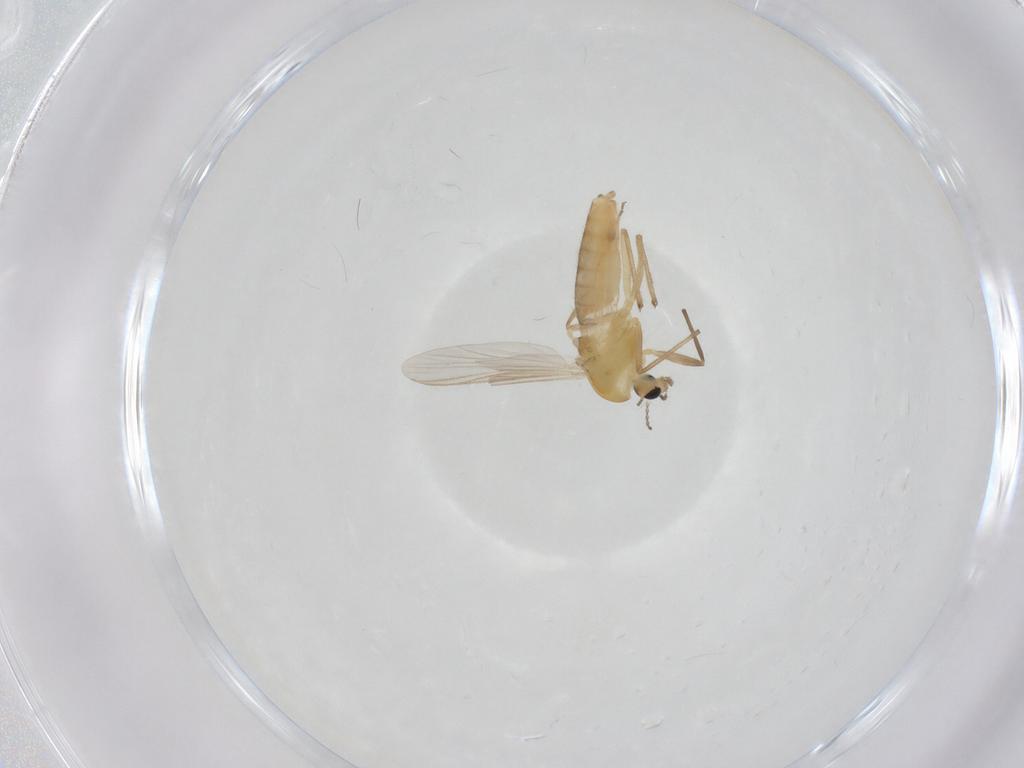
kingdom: Animalia
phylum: Arthropoda
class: Insecta
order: Diptera
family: Chironomidae
